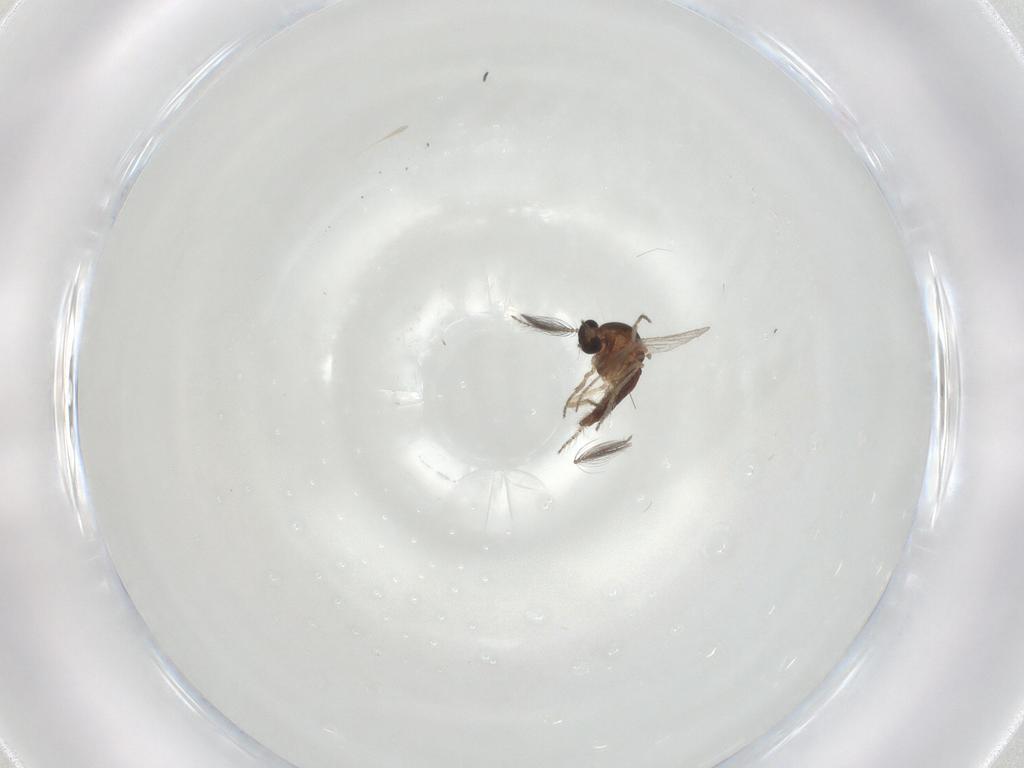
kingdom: Animalia
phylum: Arthropoda
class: Insecta
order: Diptera
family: Ceratopogonidae
